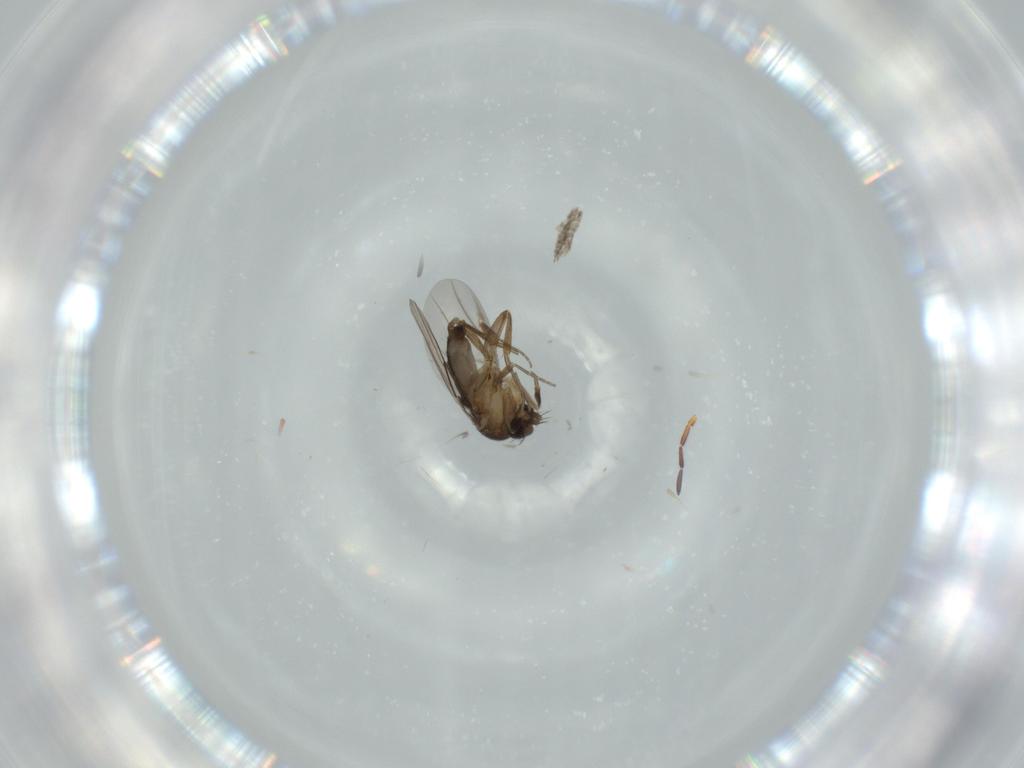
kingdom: Animalia
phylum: Arthropoda
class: Insecta
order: Diptera
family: Phoridae
